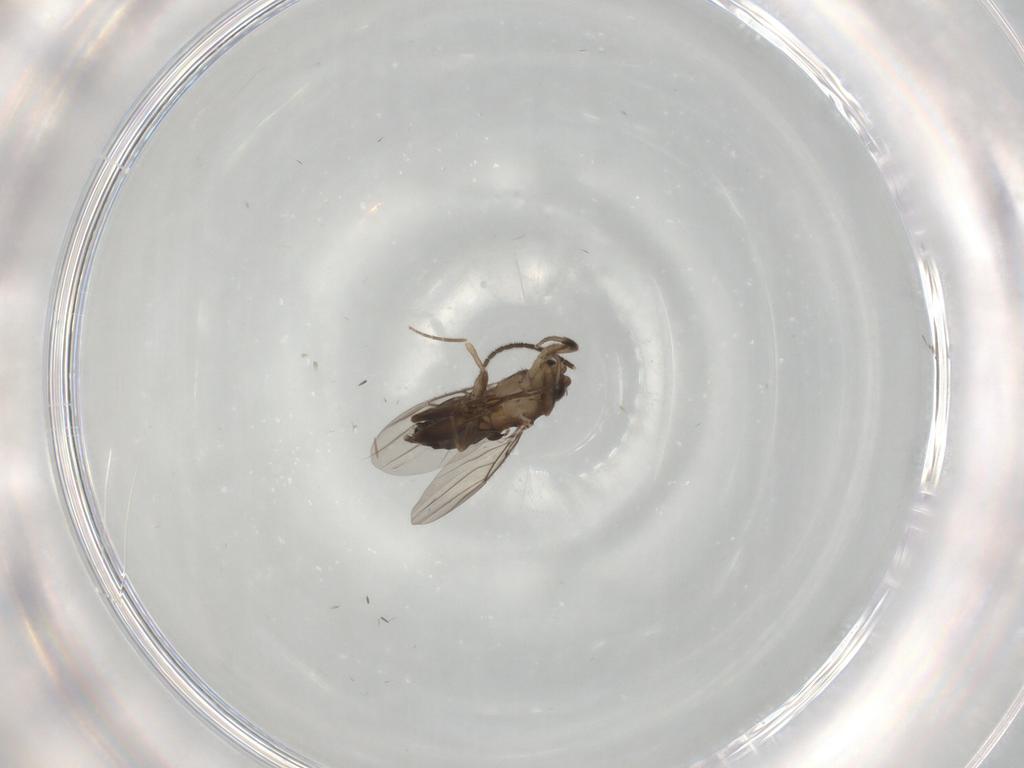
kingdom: Animalia
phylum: Arthropoda
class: Insecta
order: Diptera
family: Phoridae
